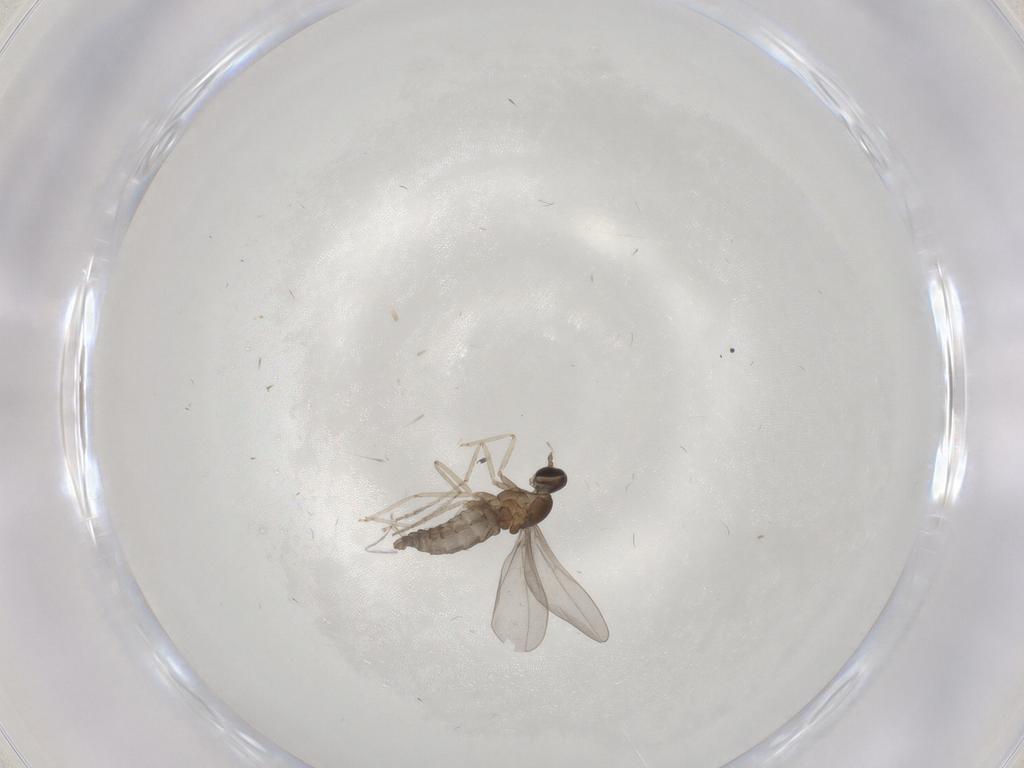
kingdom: Animalia
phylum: Arthropoda
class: Insecta
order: Diptera
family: Cecidomyiidae
